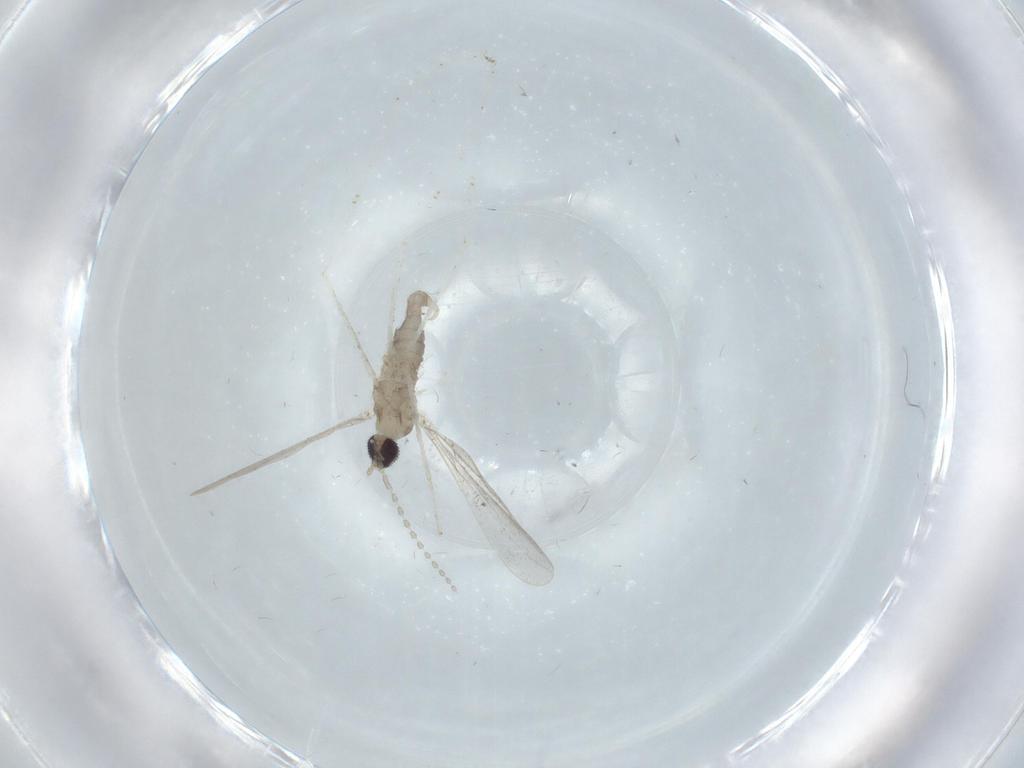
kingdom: Animalia
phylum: Arthropoda
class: Insecta
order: Diptera
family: Cecidomyiidae
